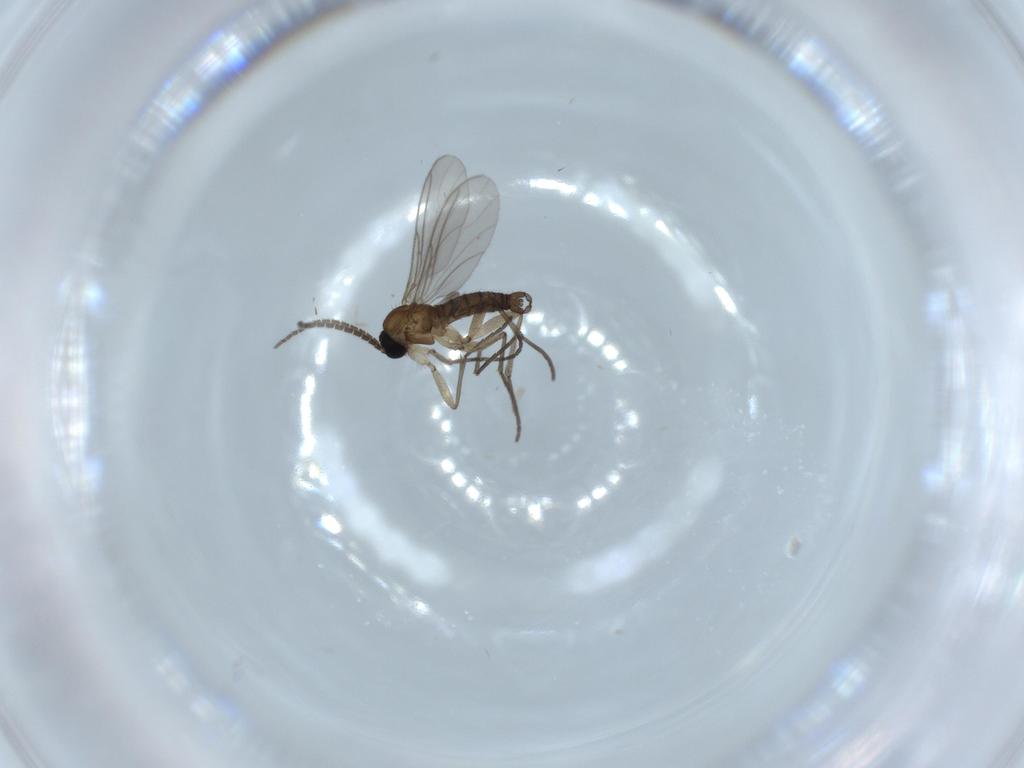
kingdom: Animalia
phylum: Arthropoda
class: Insecta
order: Diptera
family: Sciaridae
